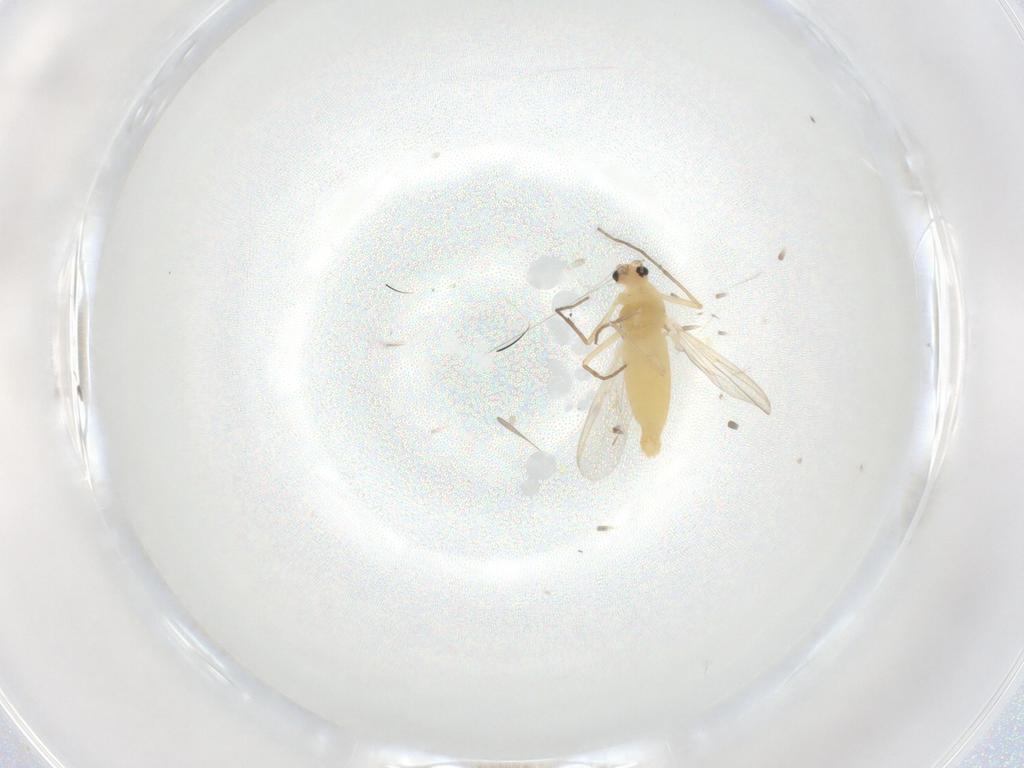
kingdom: Animalia
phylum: Arthropoda
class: Insecta
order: Diptera
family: Chironomidae
